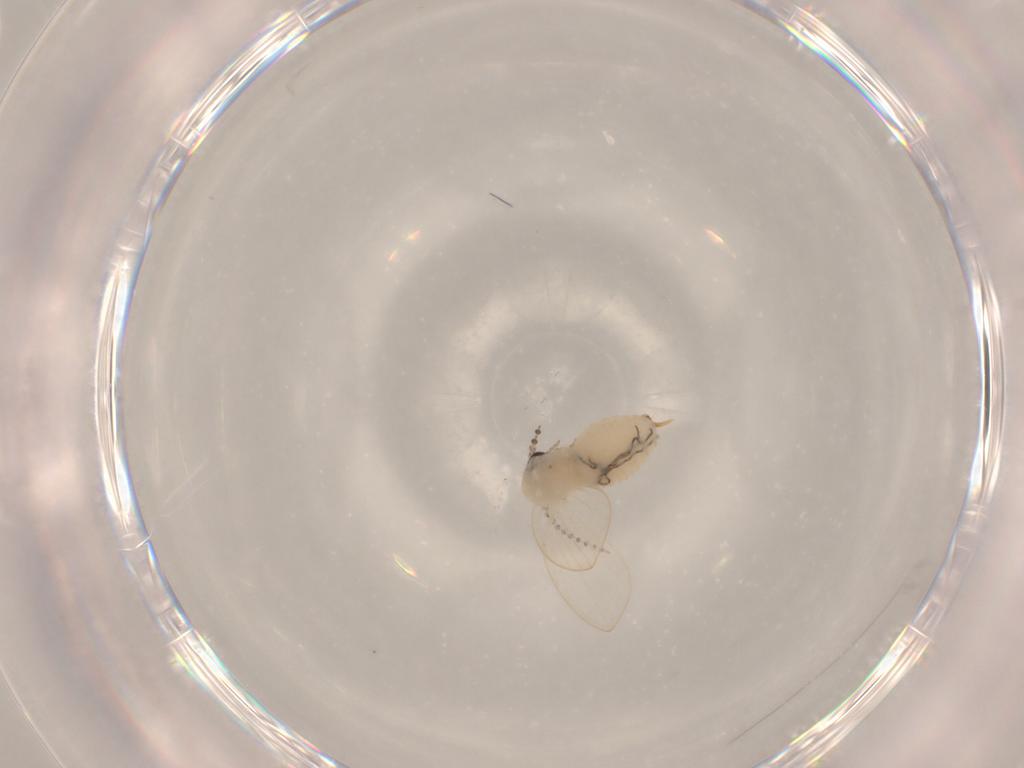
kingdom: Animalia
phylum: Arthropoda
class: Insecta
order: Diptera
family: Psychodidae
